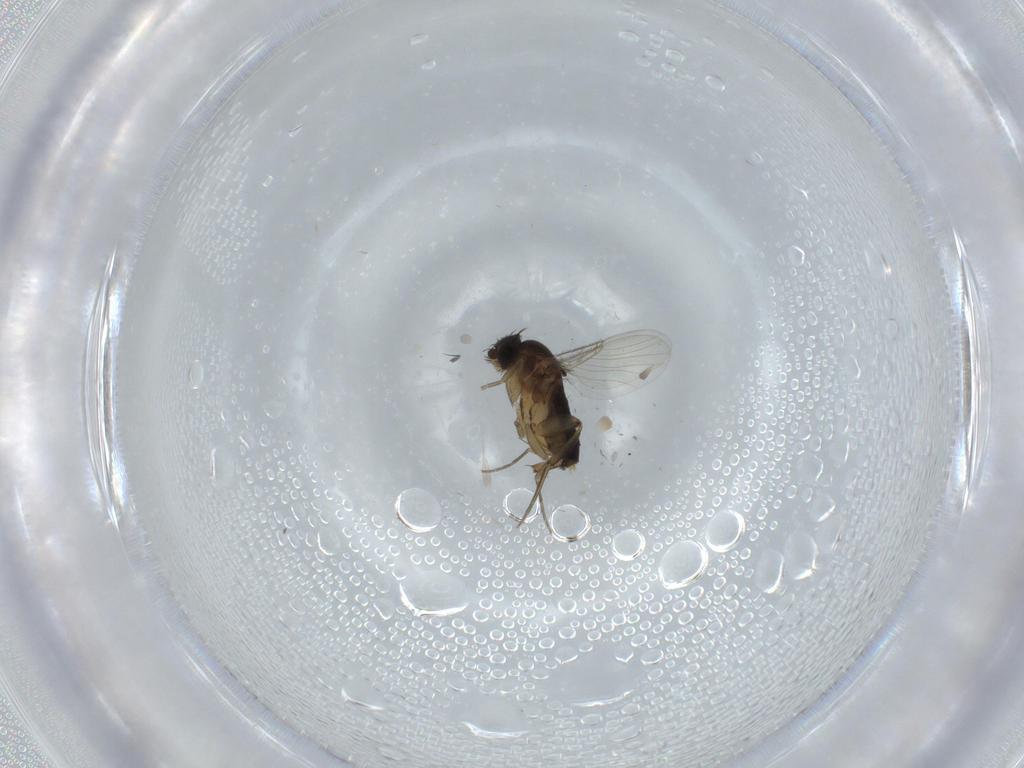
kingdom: Animalia
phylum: Arthropoda
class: Insecta
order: Diptera
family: Phoridae
